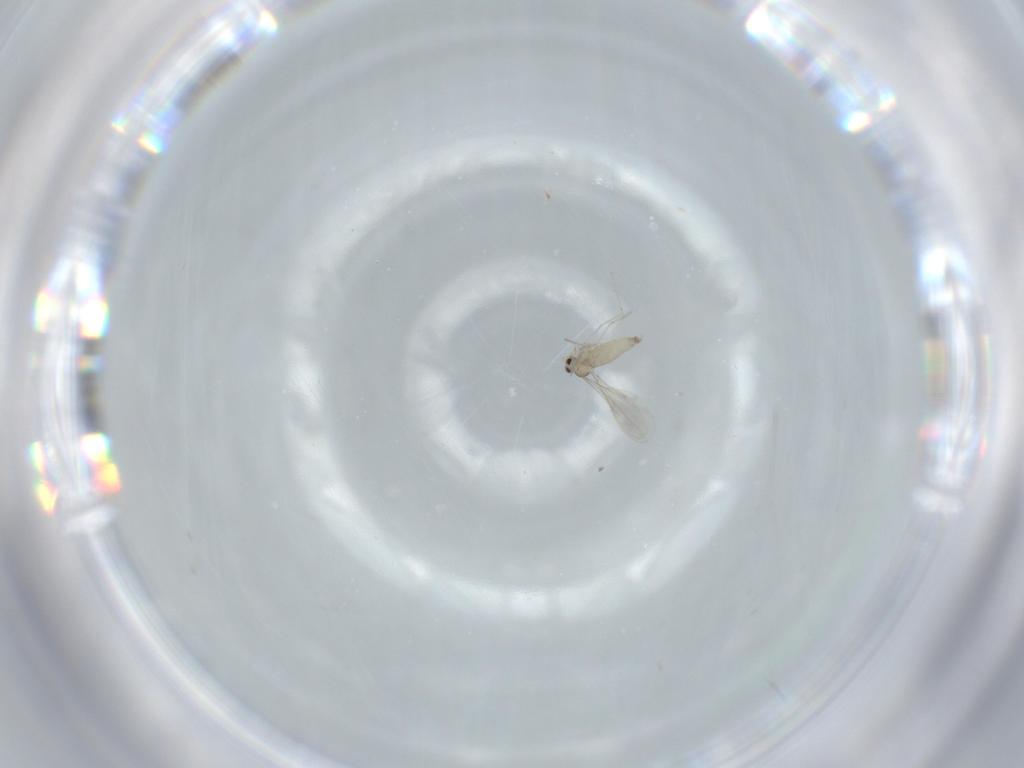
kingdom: Animalia
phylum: Arthropoda
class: Insecta
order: Diptera
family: Cecidomyiidae
